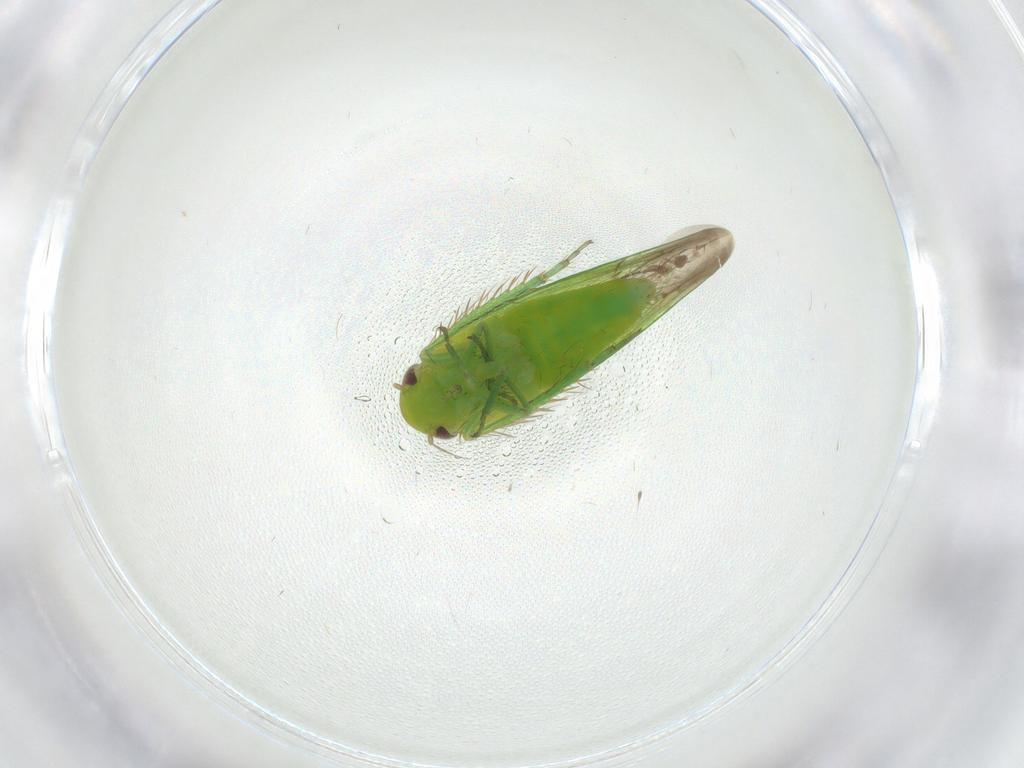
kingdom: Animalia
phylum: Arthropoda
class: Insecta
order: Hemiptera
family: Cicadellidae
